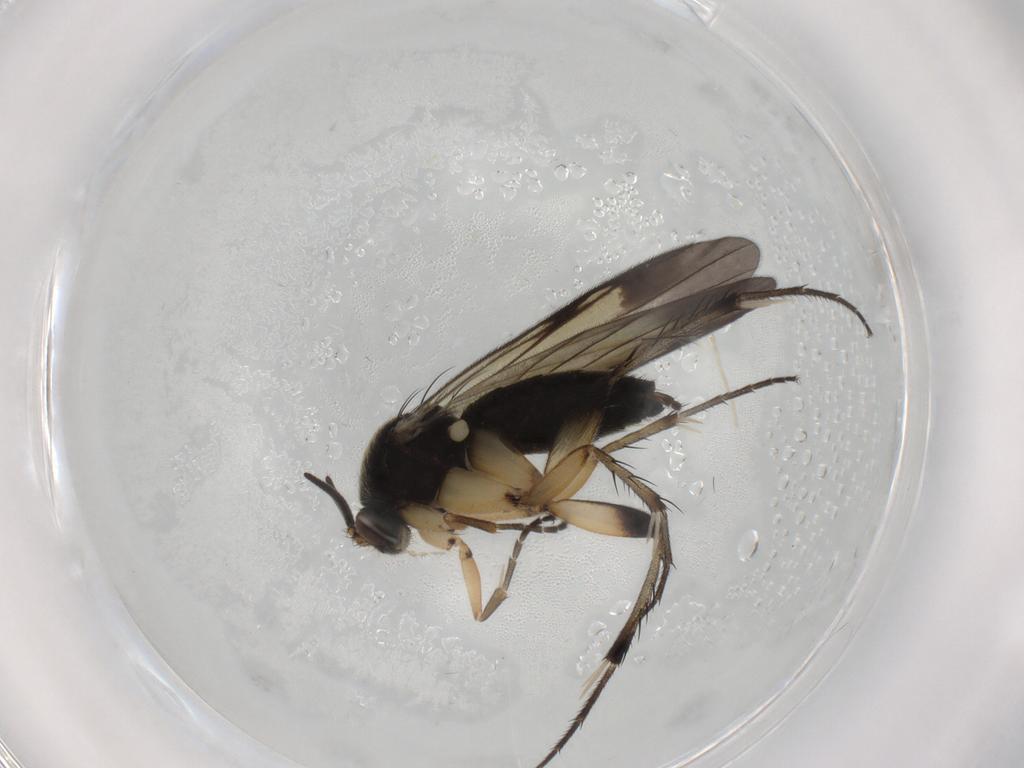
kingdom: Animalia
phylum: Arthropoda
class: Insecta
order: Diptera
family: Mycetophilidae
